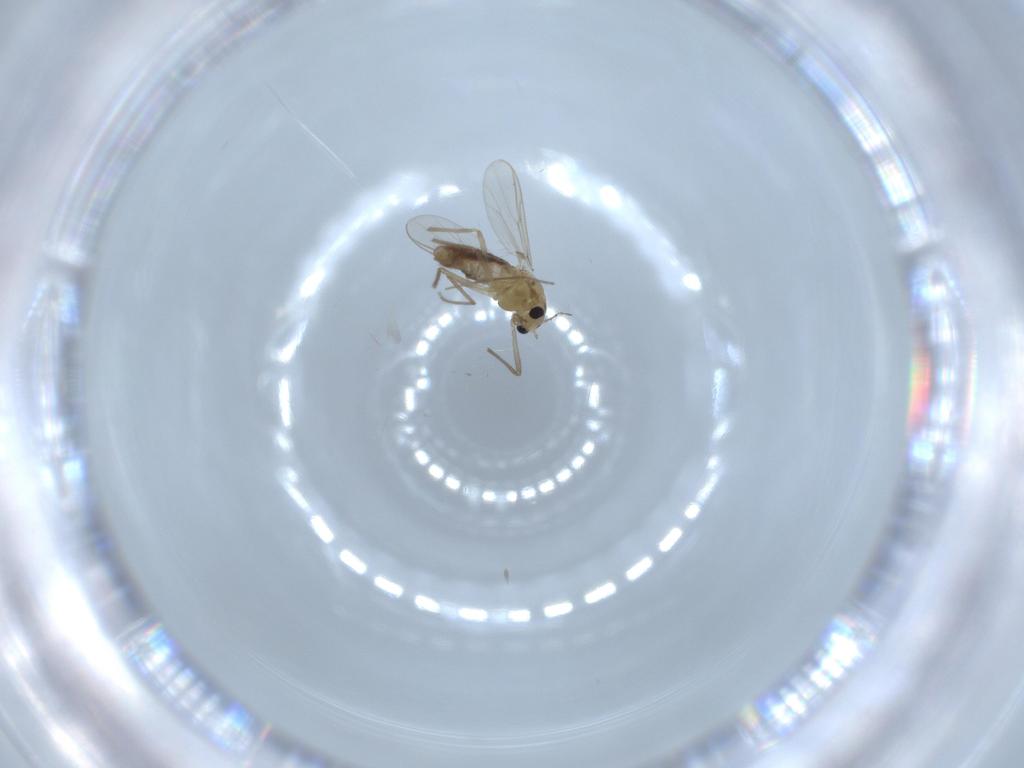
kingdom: Animalia
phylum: Arthropoda
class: Insecta
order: Diptera
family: Chironomidae
